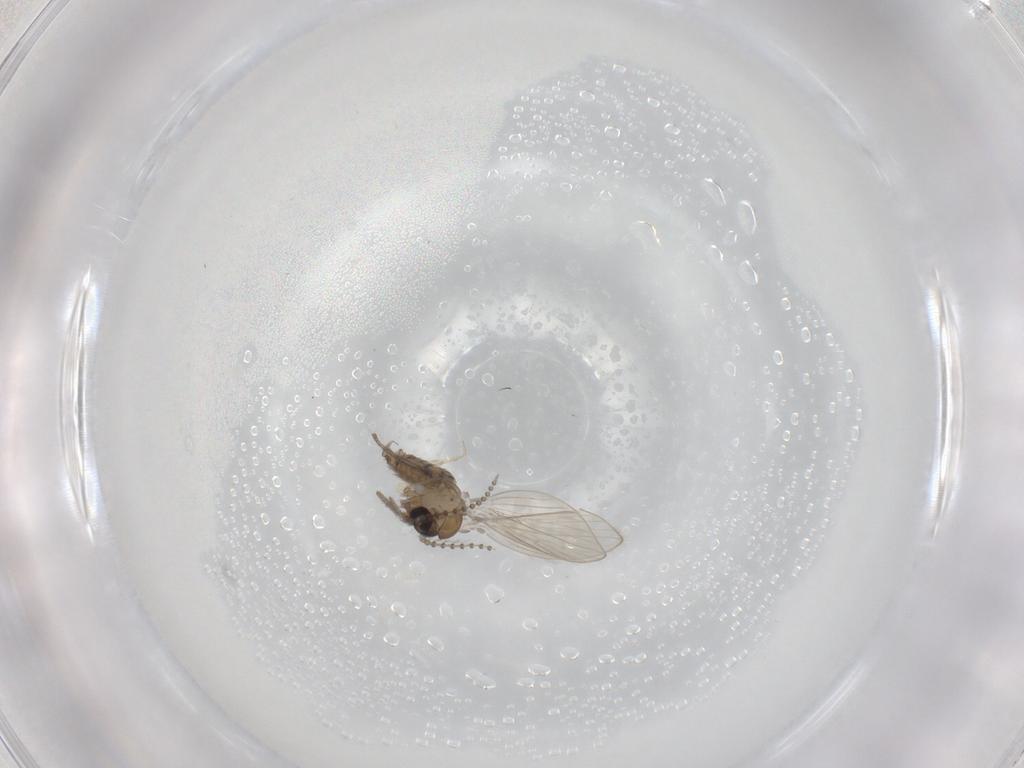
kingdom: Animalia
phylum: Arthropoda
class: Insecta
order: Diptera
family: Psychodidae
